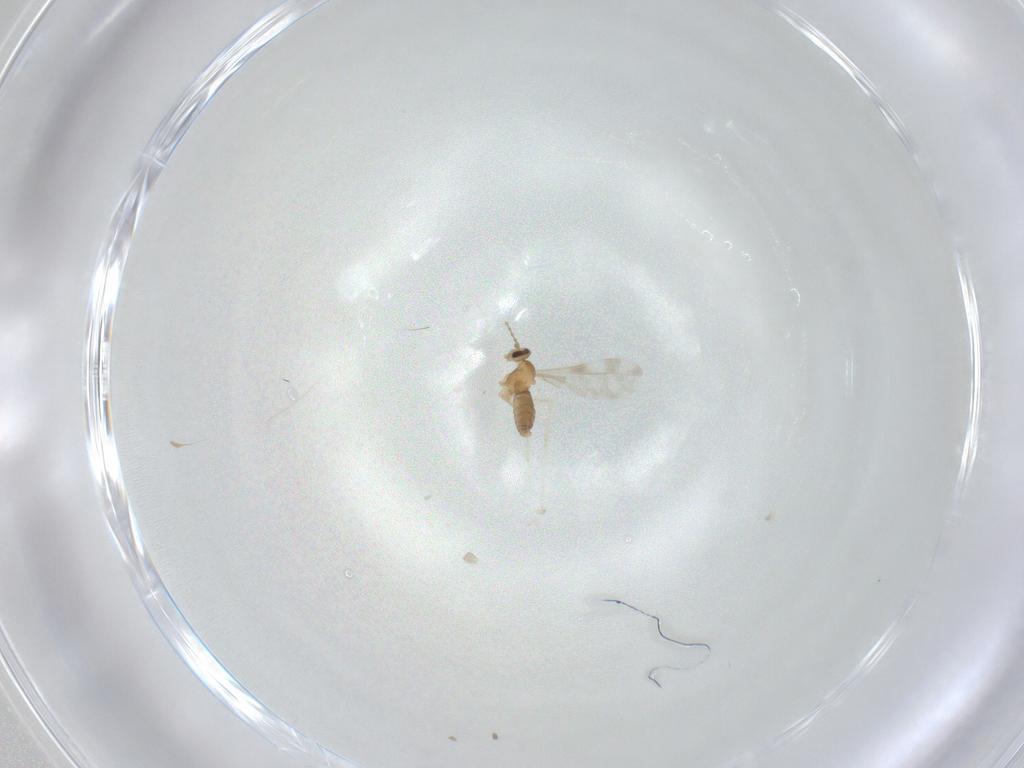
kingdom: Animalia
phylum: Arthropoda
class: Insecta
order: Diptera
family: Cecidomyiidae
